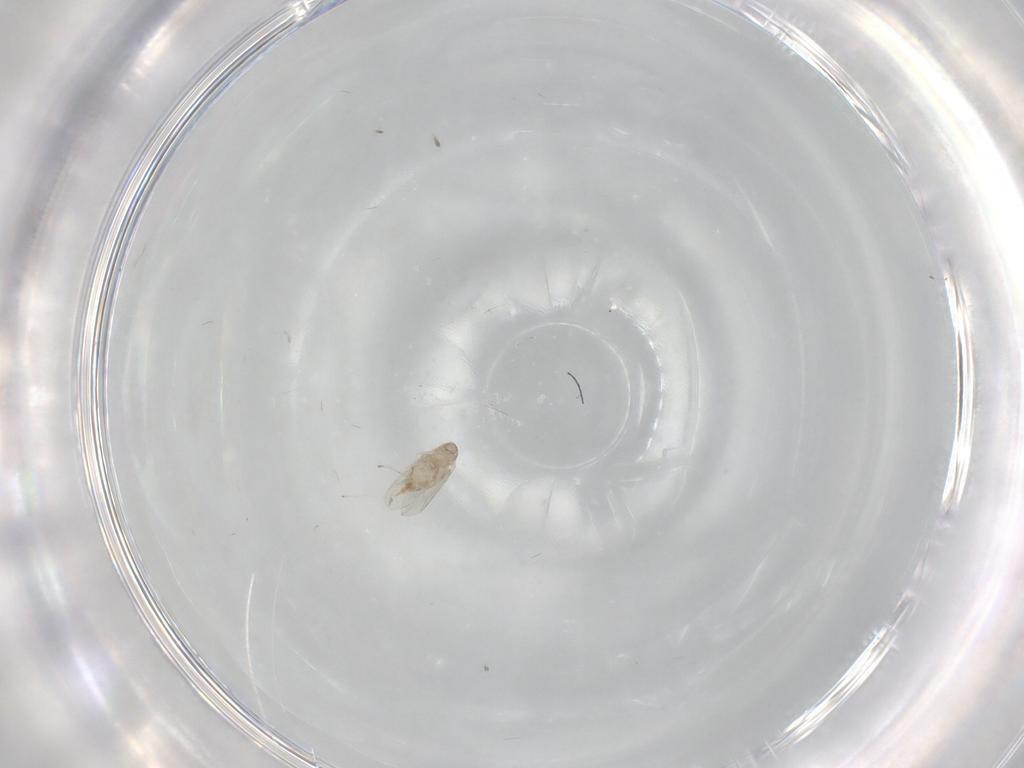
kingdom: Animalia
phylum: Arthropoda
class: Insecta
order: Diptera
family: Cecidomyiidae
